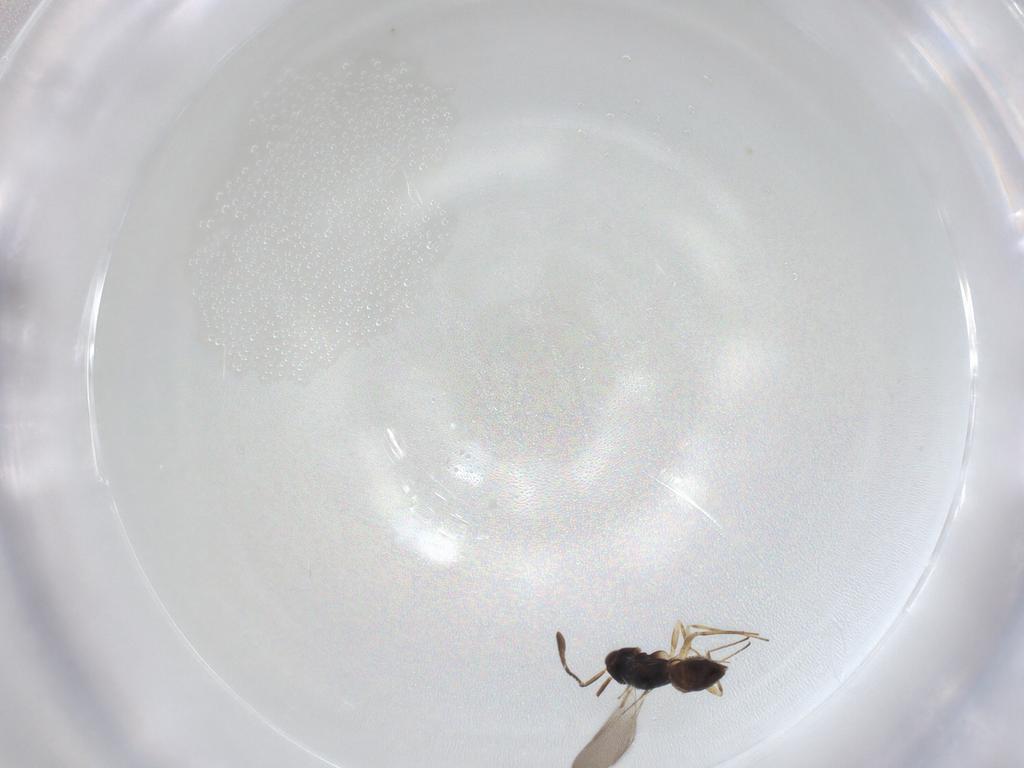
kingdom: Animalia
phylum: Arthropoda
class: Insecta
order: Hymenoptera
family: Mymaridae
